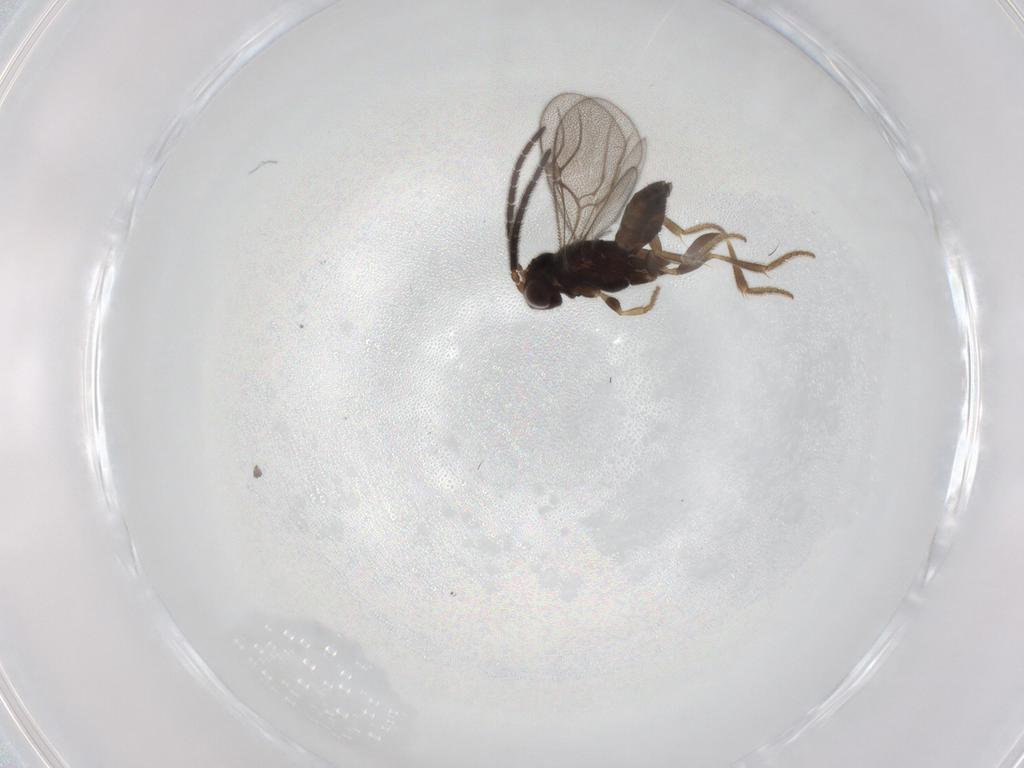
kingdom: Animalia
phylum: Arthropoda
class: Insecta
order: Hymenoptera
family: Dryinidae
